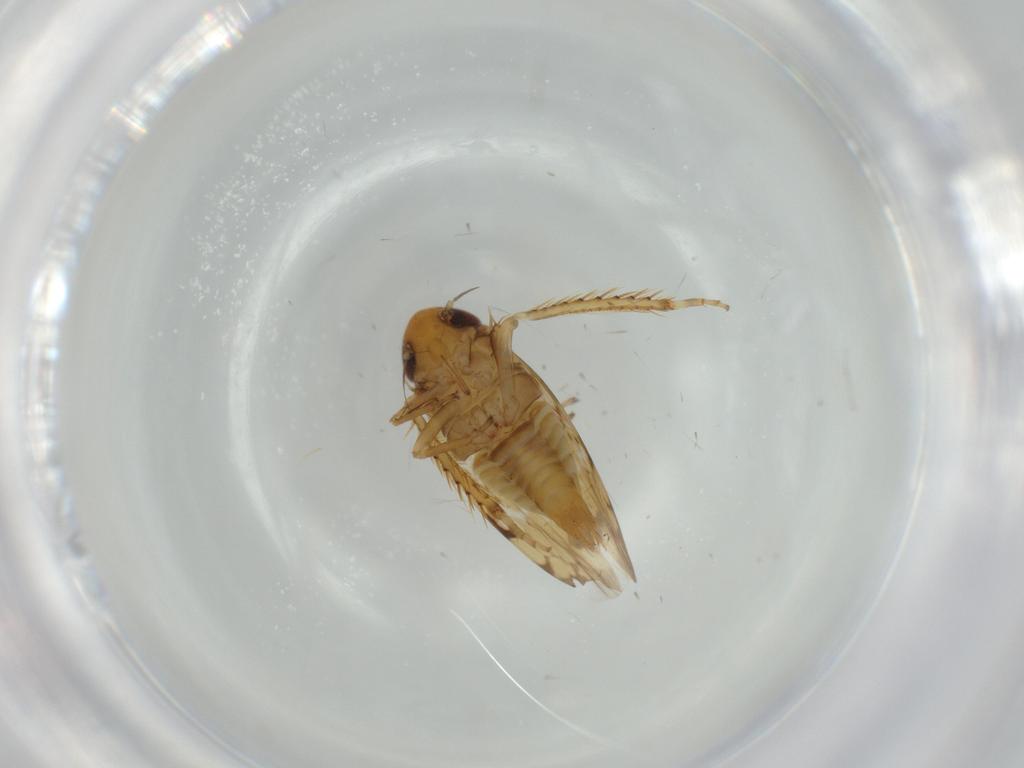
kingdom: Animalia
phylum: Arthropoda
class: Insecta
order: Hemiptera
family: Cicadellidae
